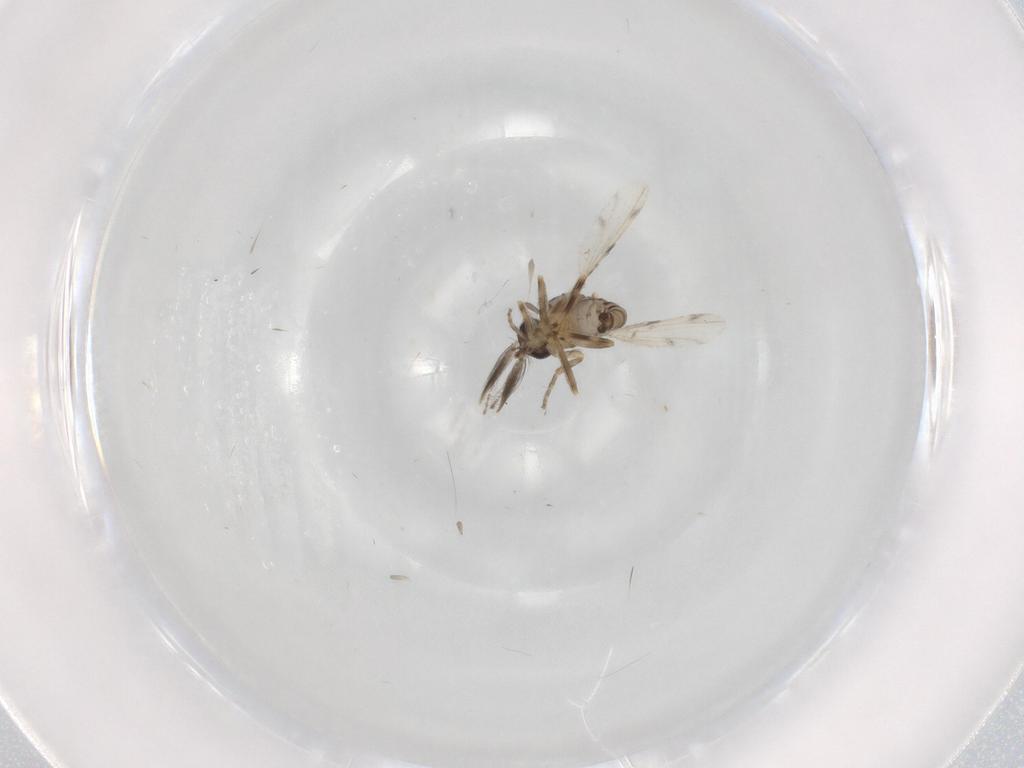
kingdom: Animalia
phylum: Arthropoda
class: Insecta
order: Diptera
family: Ceratopogonidae
